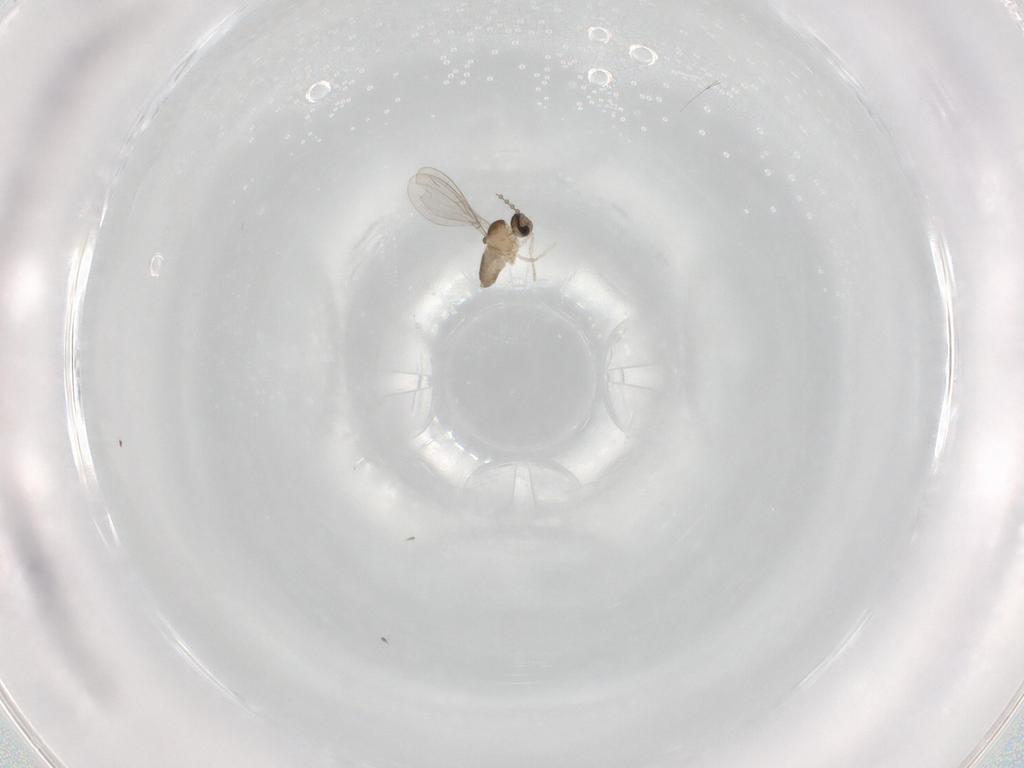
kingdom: Animalia
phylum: Arthropoda
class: Insecta
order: Diptera
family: Cecidomyiidae
